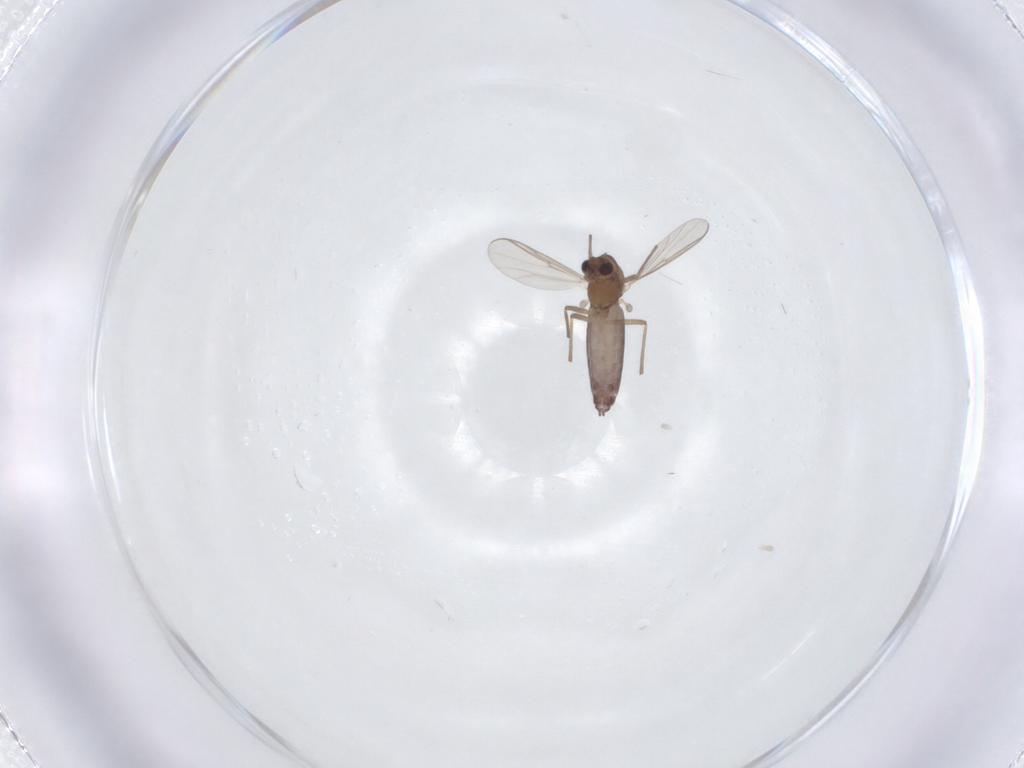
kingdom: Animalia
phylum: Arthropoda
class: Insecta
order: Diptera
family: Chironomidae
